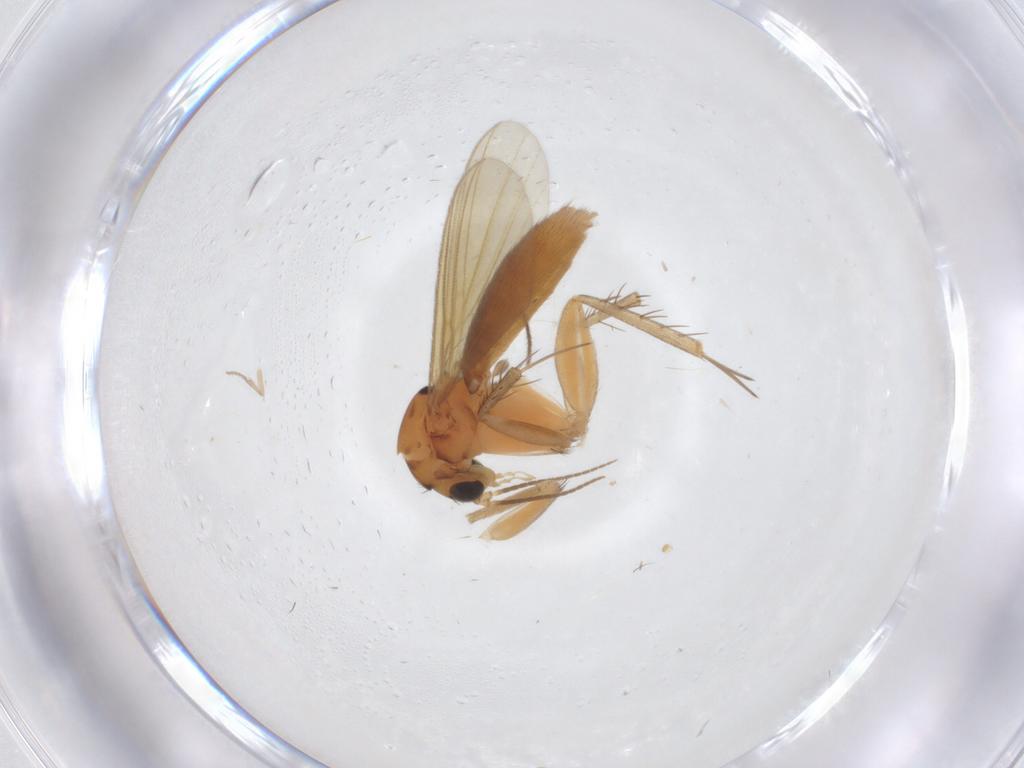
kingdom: Animalia
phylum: Arthropoda
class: Insecta
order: Diptera
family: Mycetophilidae
